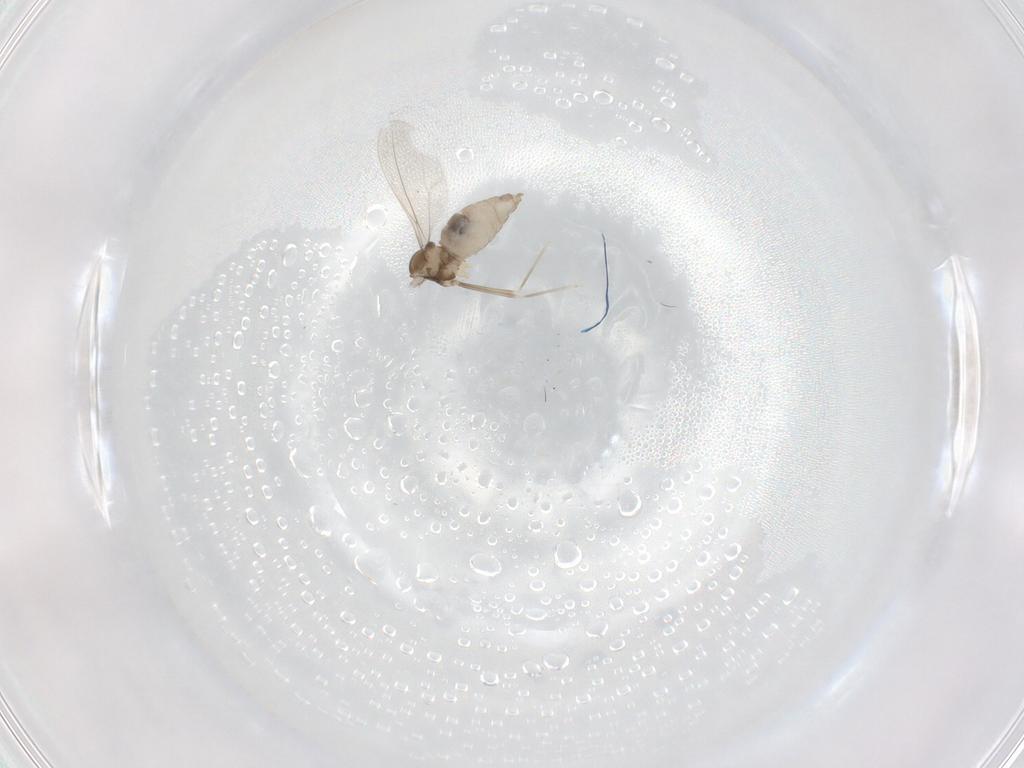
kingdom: Animalia
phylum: Arthropoda
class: Insecta
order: Diptera
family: Cecidomyiidae
